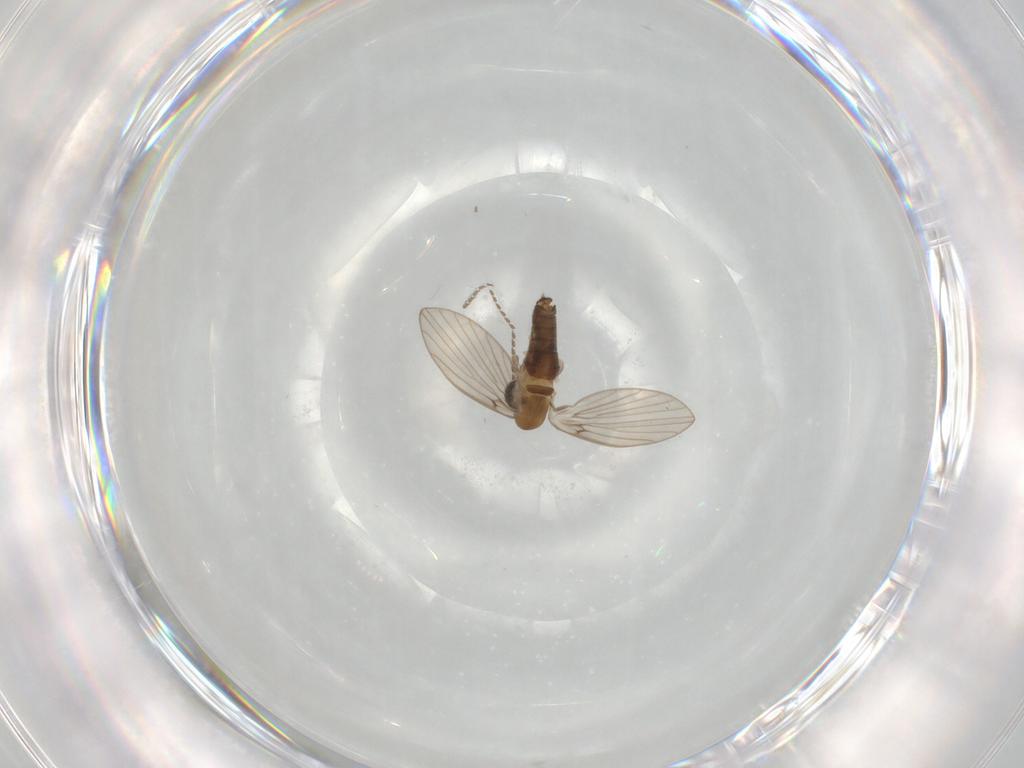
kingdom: Animalia
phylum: Arthropoda
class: Insecta
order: Diptera
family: Psychodidae
